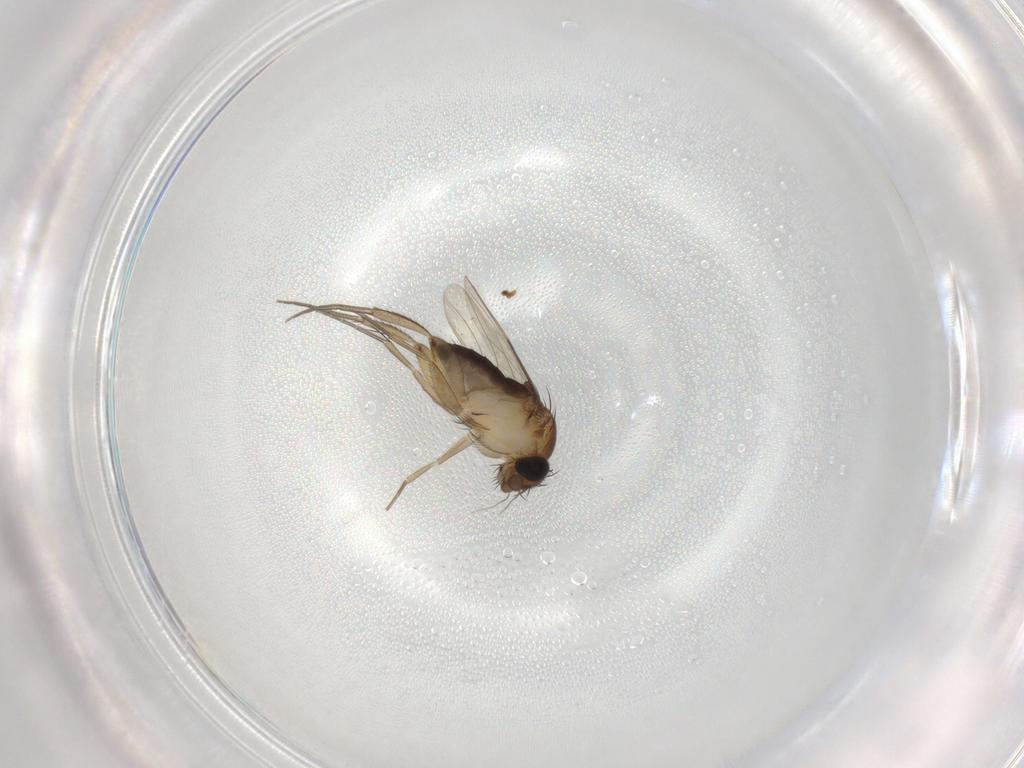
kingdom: Animalia
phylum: Arthropoda
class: Insecta
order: Diptera
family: Phoridae
